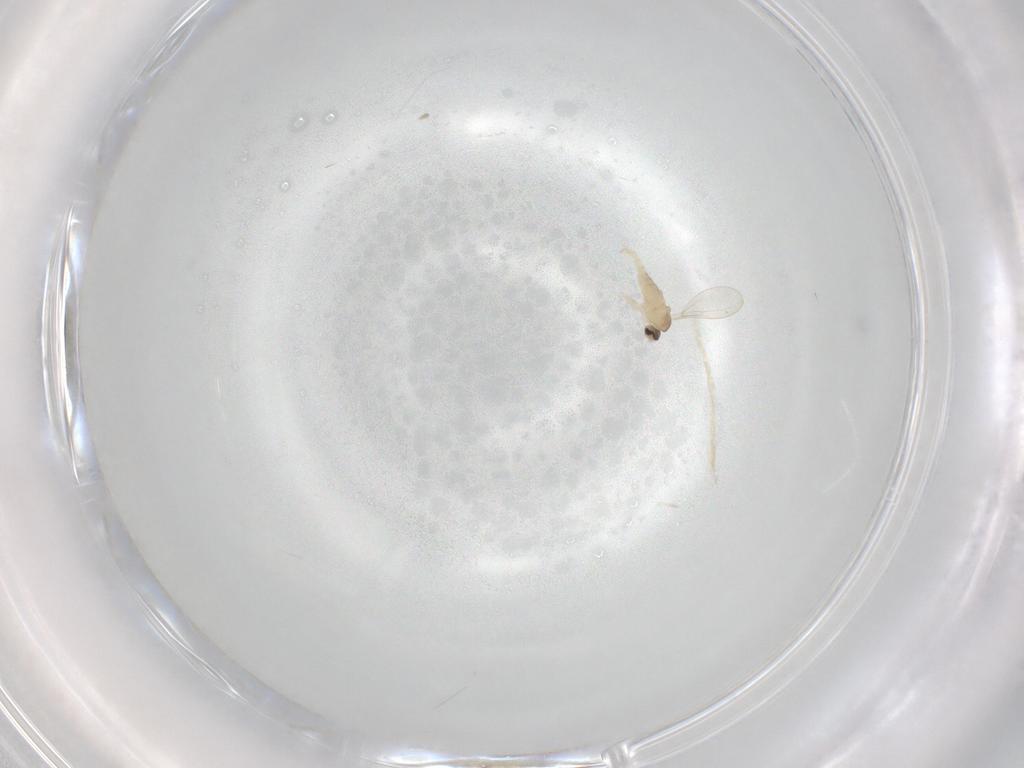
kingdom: Animalia
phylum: Arthropoda
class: Insecta
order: Diptera
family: Cecidomyiidae
